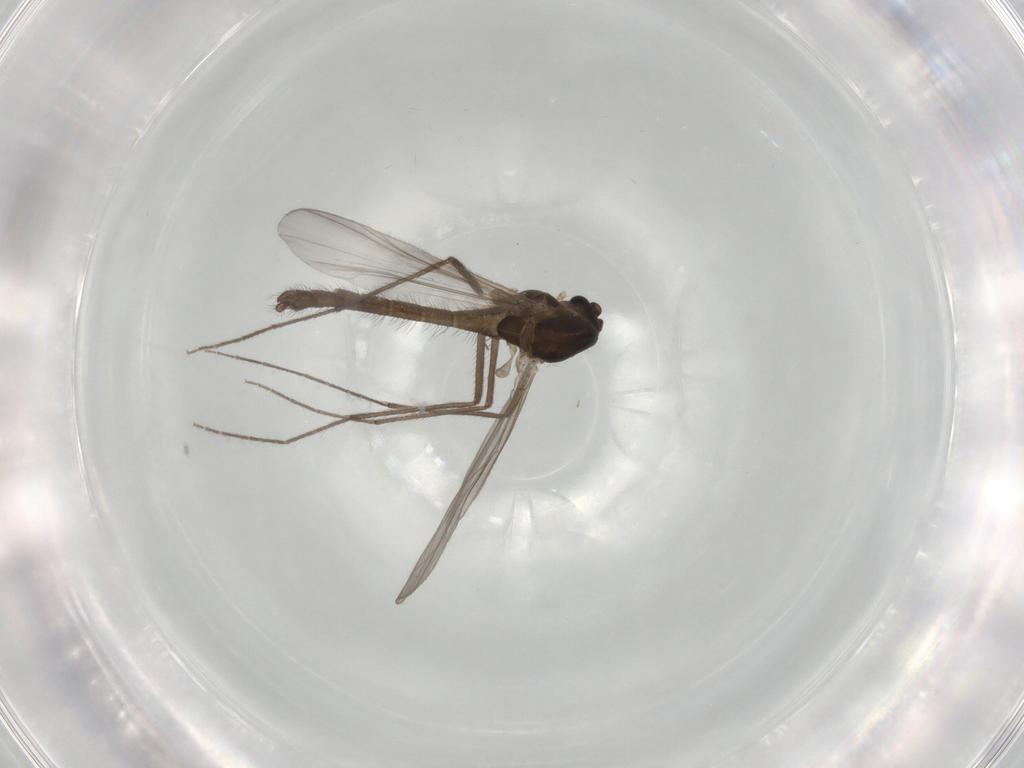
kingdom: Animalia
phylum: Arthropoda
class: Insecta
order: Diptera
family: Chironomidae
